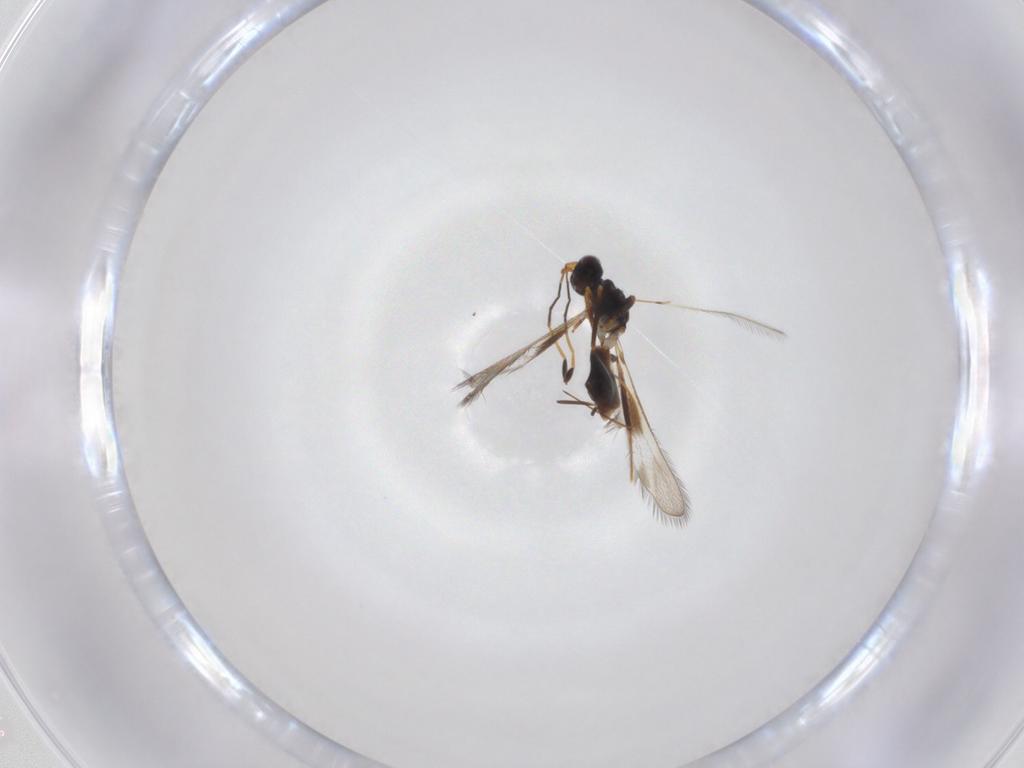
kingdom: Animalia
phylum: Arthropoda
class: Insecta
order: Hymenoptera
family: Mymaridae
